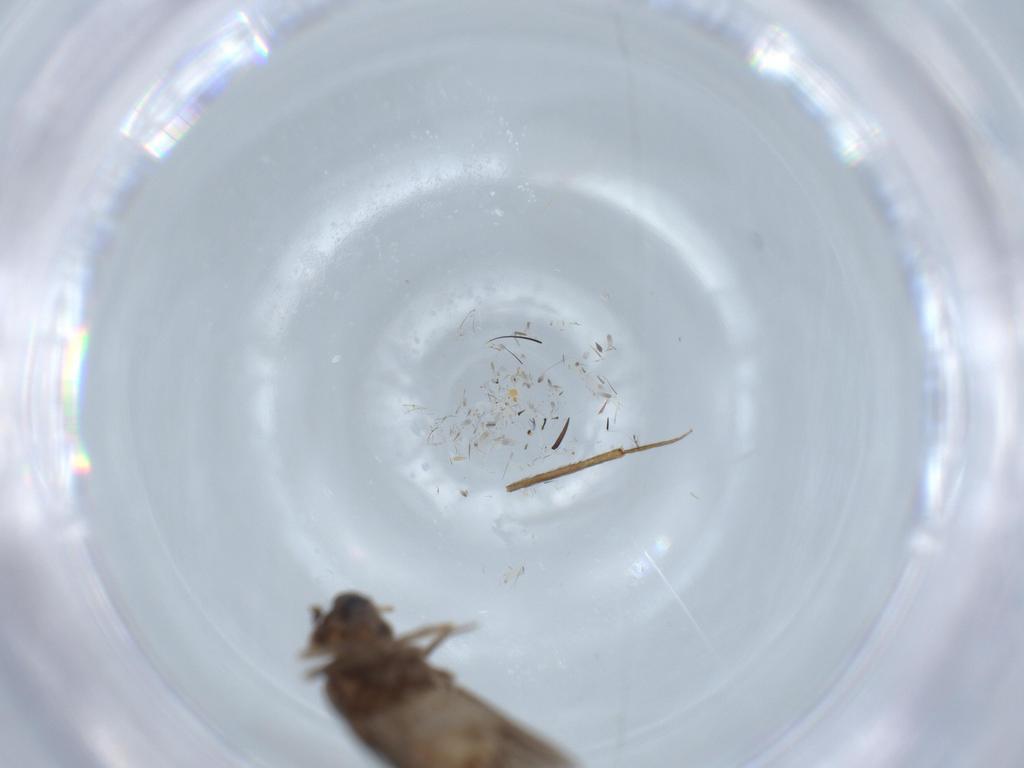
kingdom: Animalia
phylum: Arthropoda
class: Insecta
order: Psocodea
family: Lepidopsocidae
